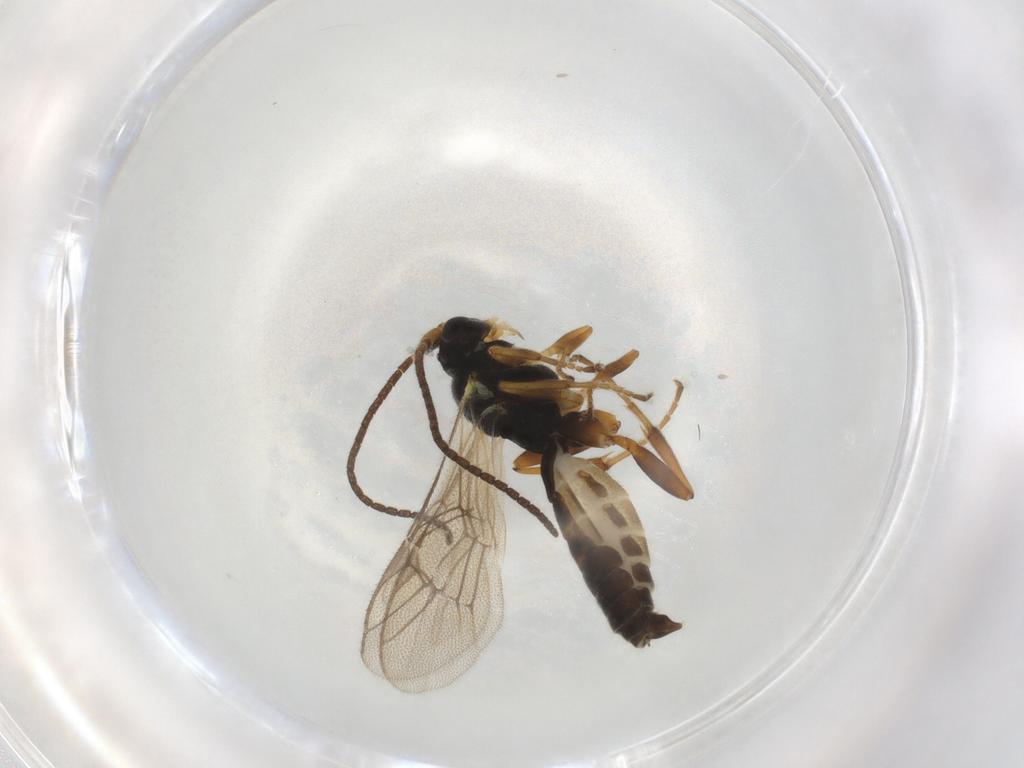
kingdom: Animalia
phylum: Arthropoda
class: Insecta
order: Hymenoptera
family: Ichneumonidae
